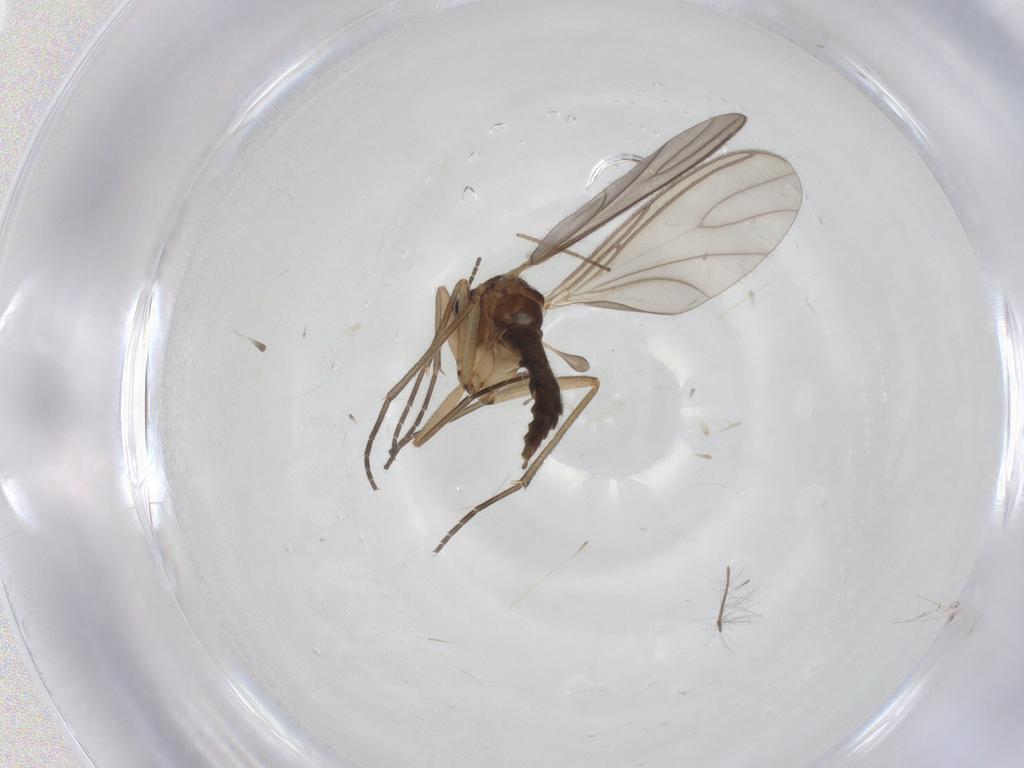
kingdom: Animalia
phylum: Arthropoda
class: Insecta
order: Diptera
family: Sciaridae
